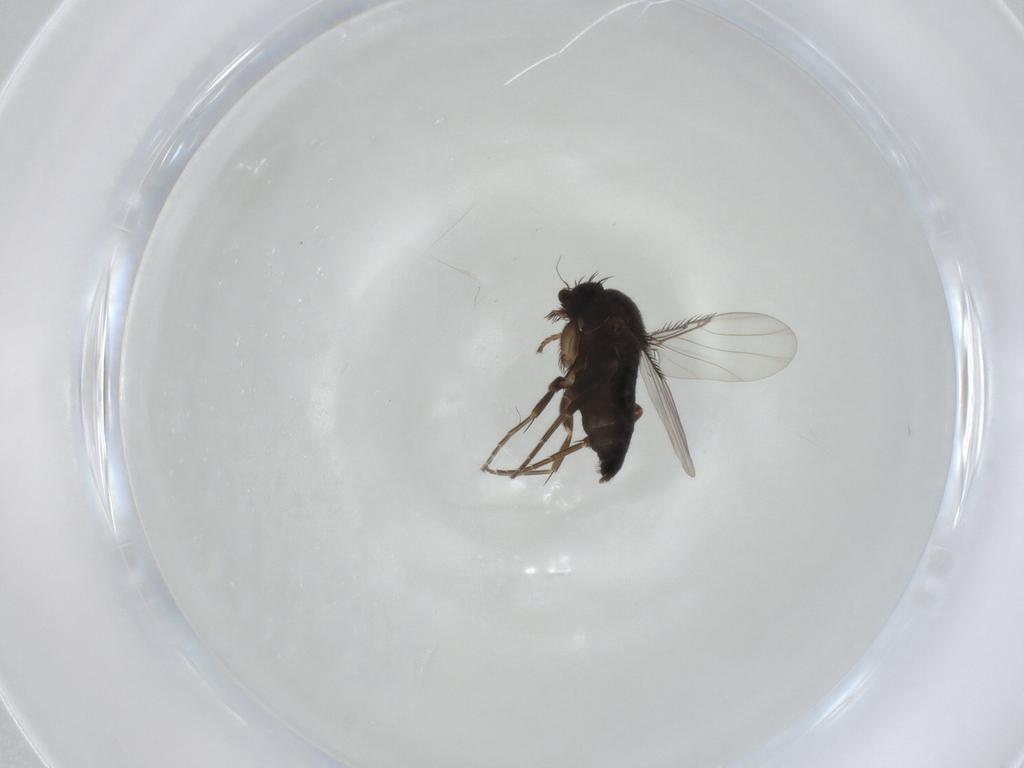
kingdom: Animalia
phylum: Arthropoda
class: Insecta
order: Diptera
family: Phoridae
